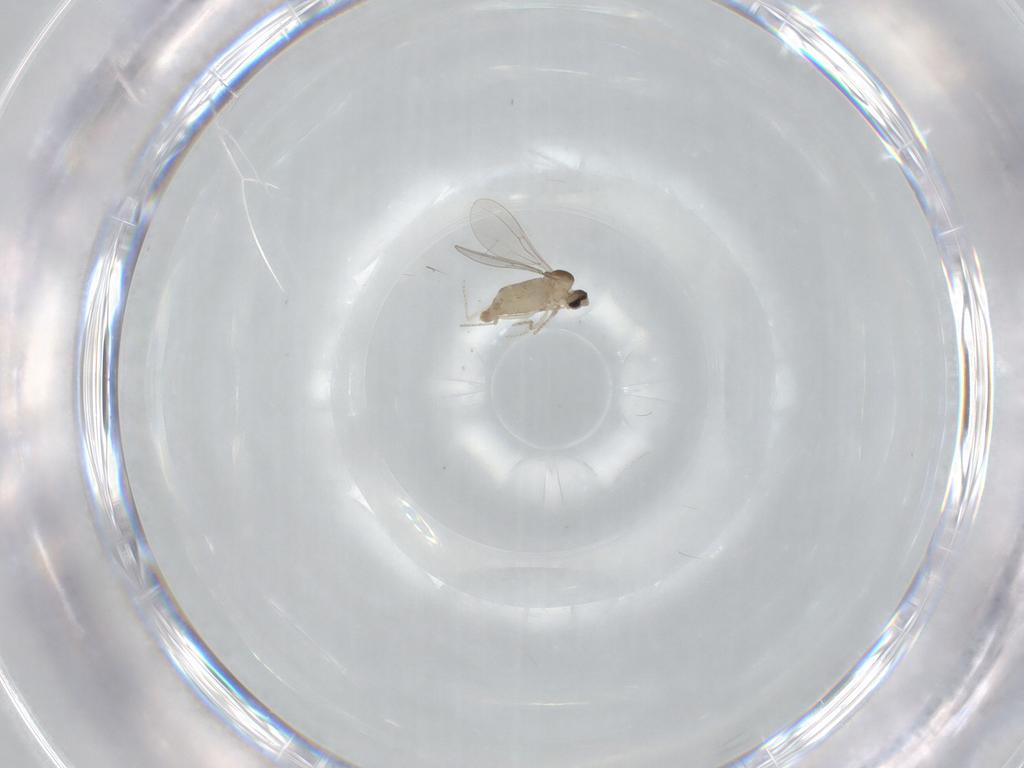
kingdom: Animalia
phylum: Arthropoda
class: Insecta
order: Diptera
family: Cecidomyiidae
